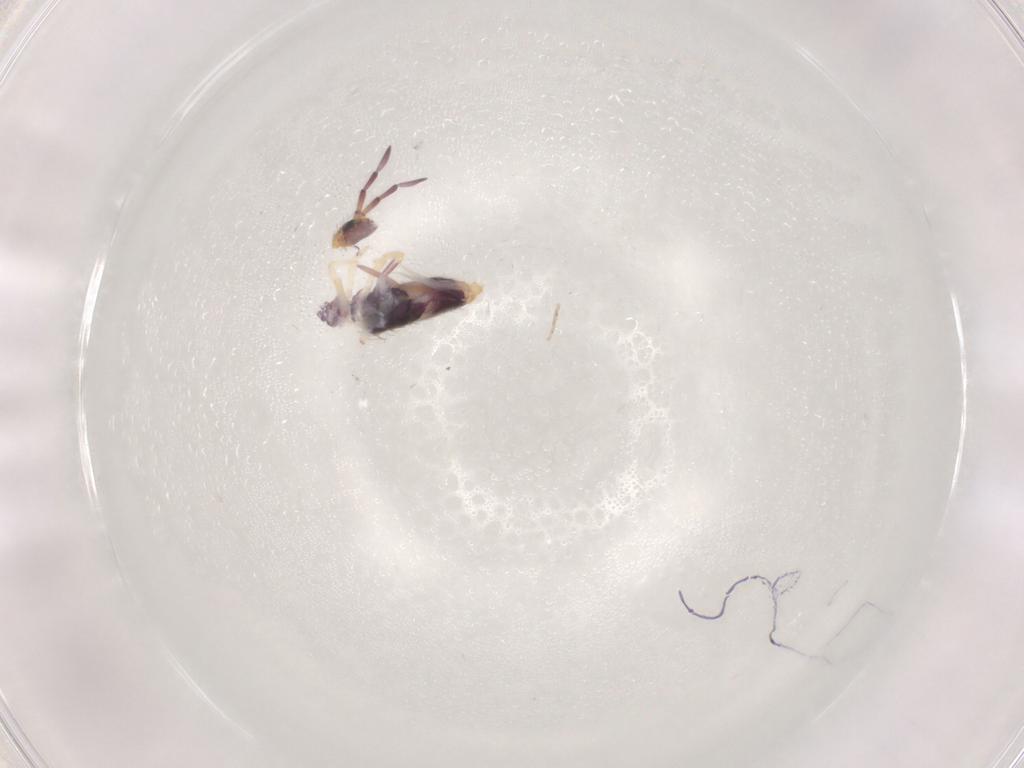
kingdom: Animalia
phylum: Arthropoda
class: Collembola
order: Entomobryomorpha
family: Entomobryidae
